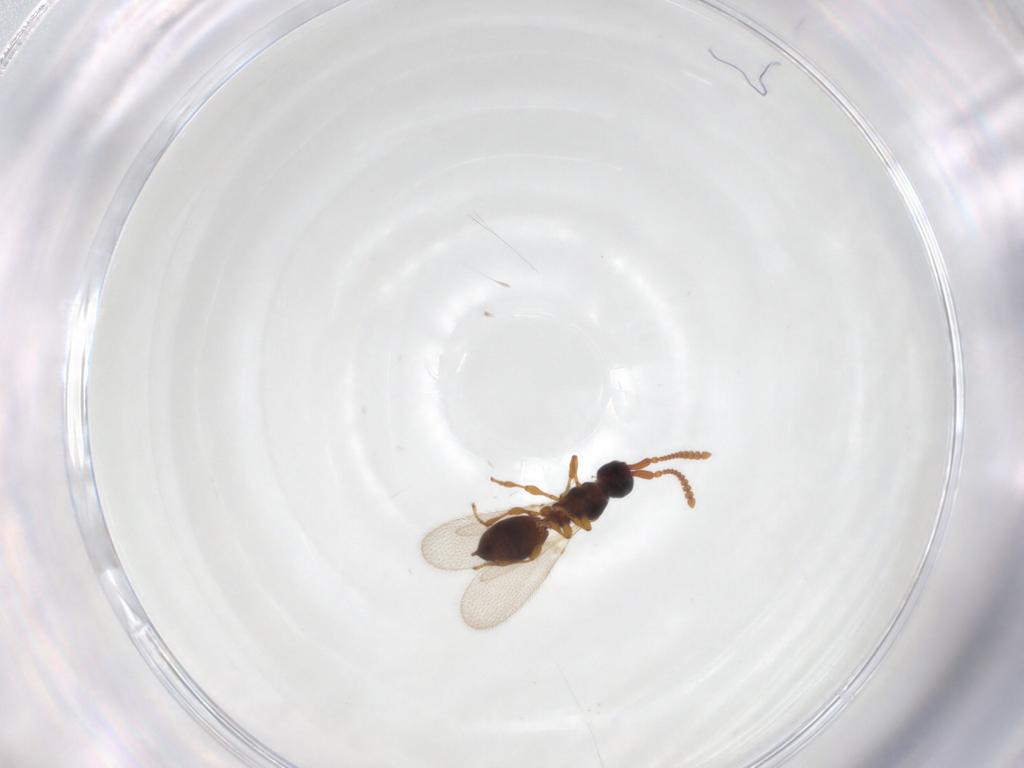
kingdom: Animalia
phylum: Arthropoda
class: Insecta
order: Hymenoptera
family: Diapriidae
